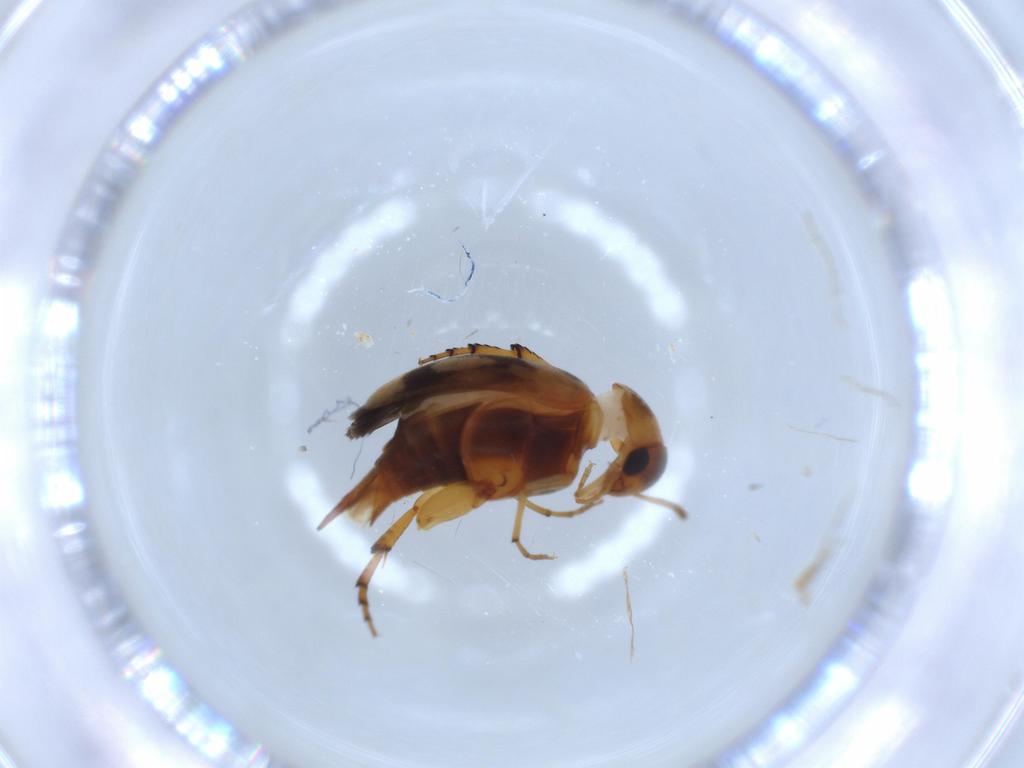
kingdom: Animalia
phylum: Arthropoda
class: Insecta
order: Coleoptera
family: Mordellidae
